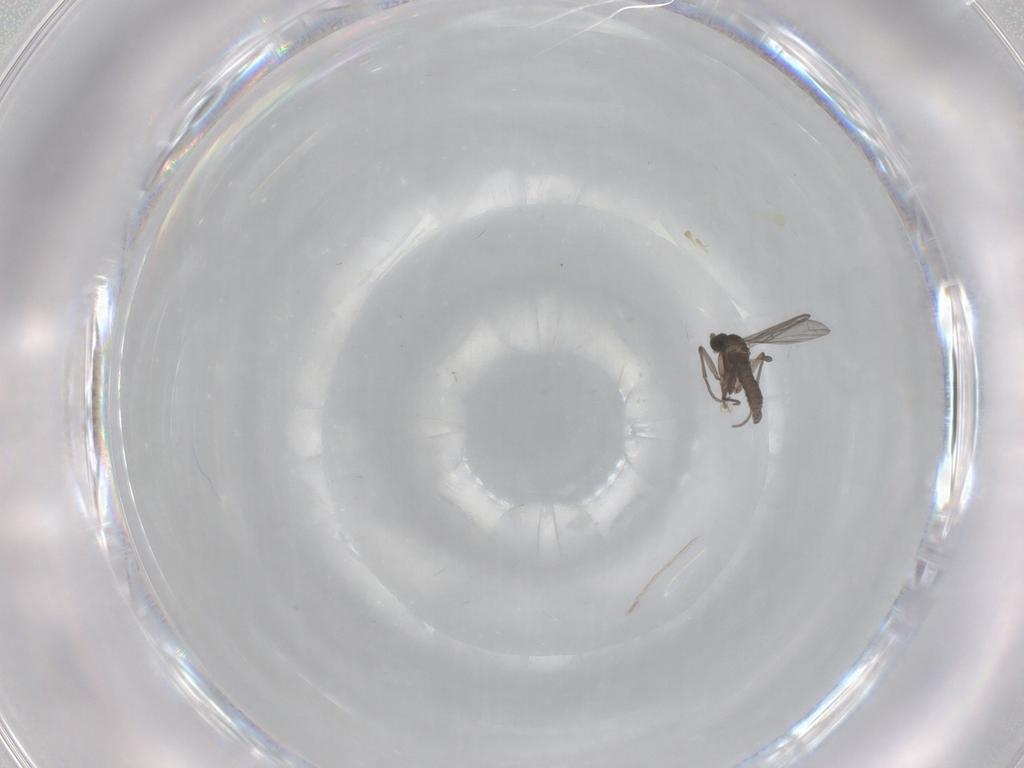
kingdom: Animalia
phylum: Arthropoda
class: Insecta
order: Diptera
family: Sciaridae
